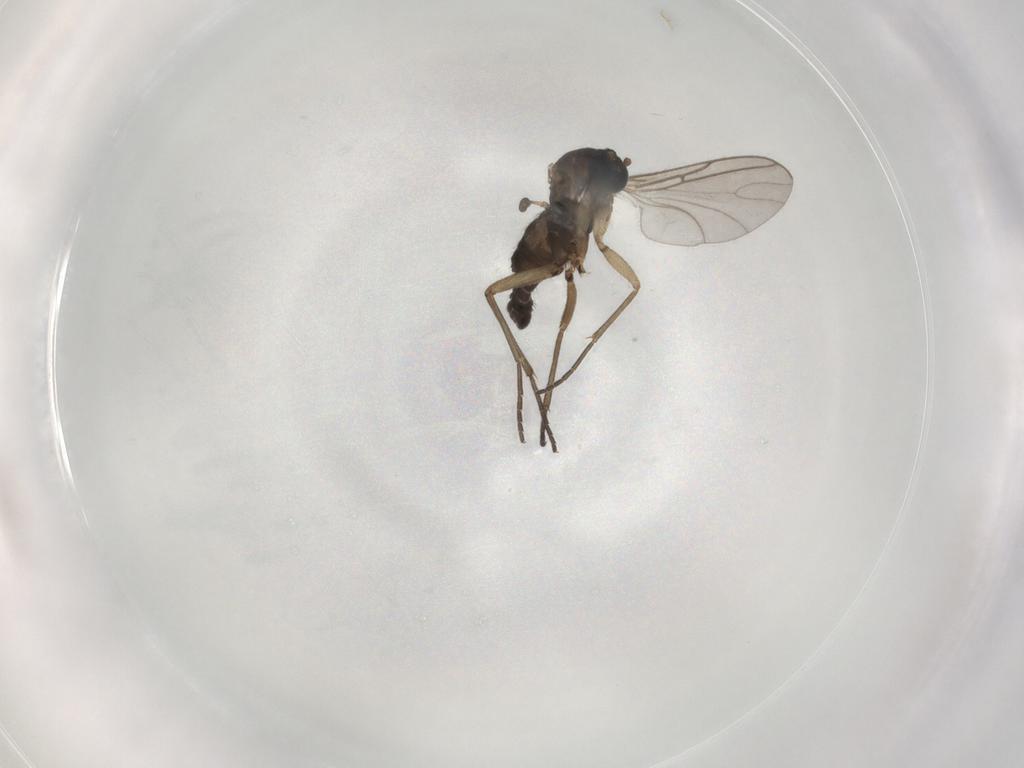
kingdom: Animalia
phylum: Arthropoda
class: Insecta
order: Diptera
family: Sciaridae
